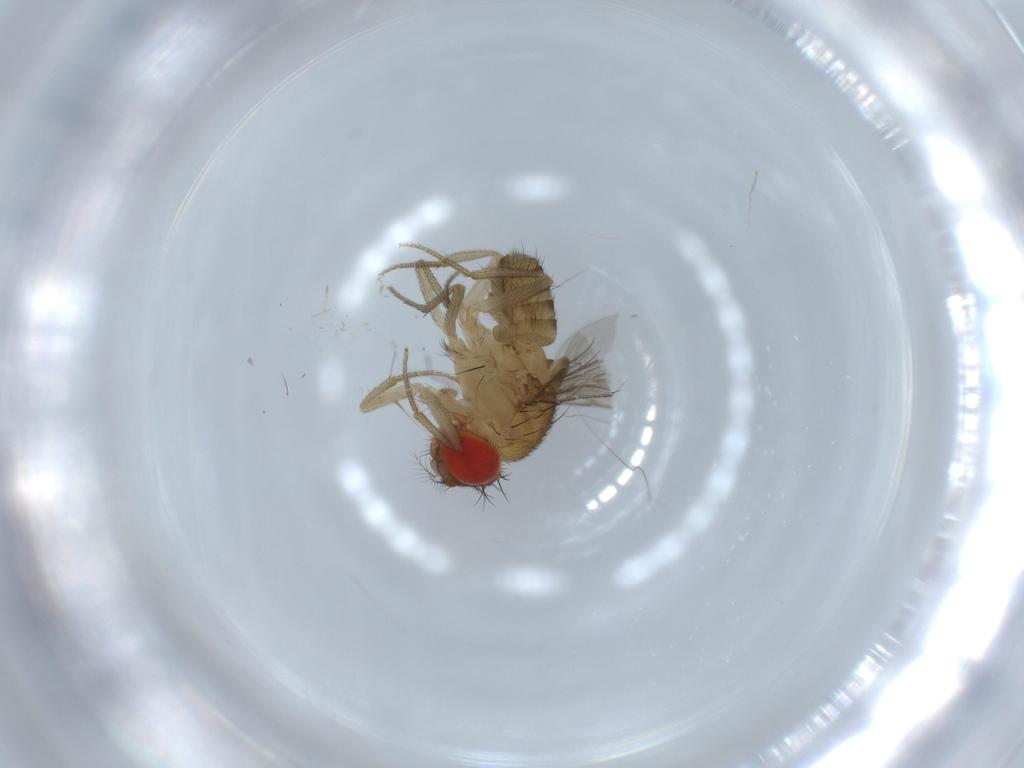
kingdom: Animalia
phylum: Arthropoda
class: Insecta
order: Diptera
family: Drosophilidae
